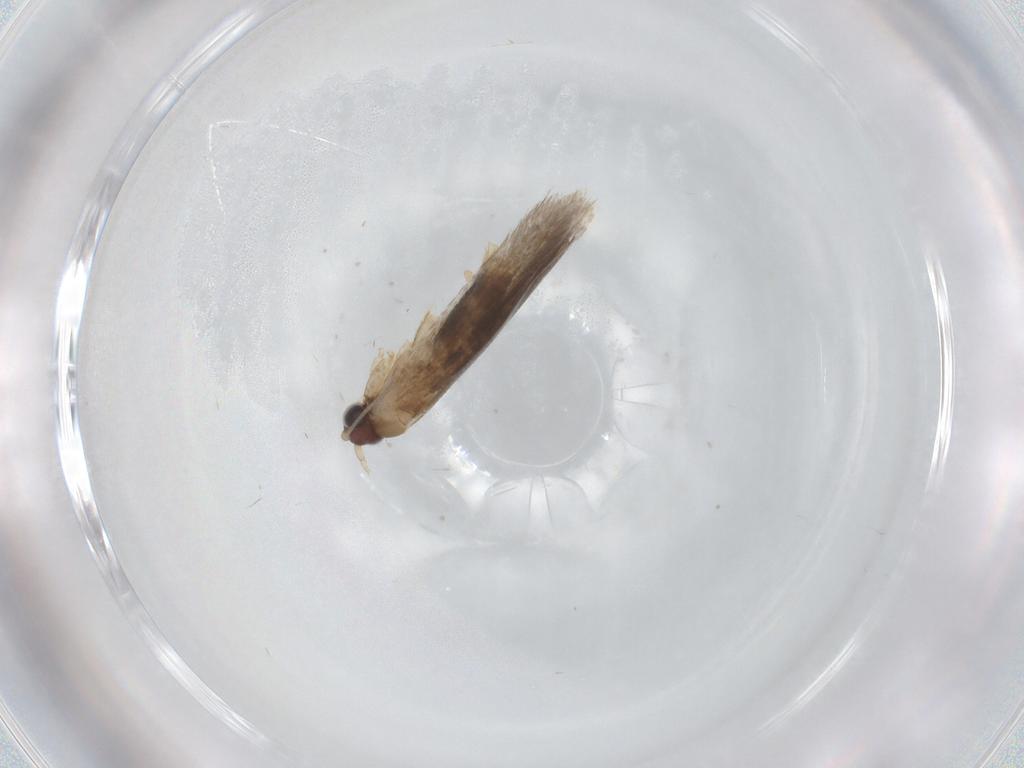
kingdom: Animalia
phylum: Arthropoda
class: Insecta
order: Lepidoptera
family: Tineidae
